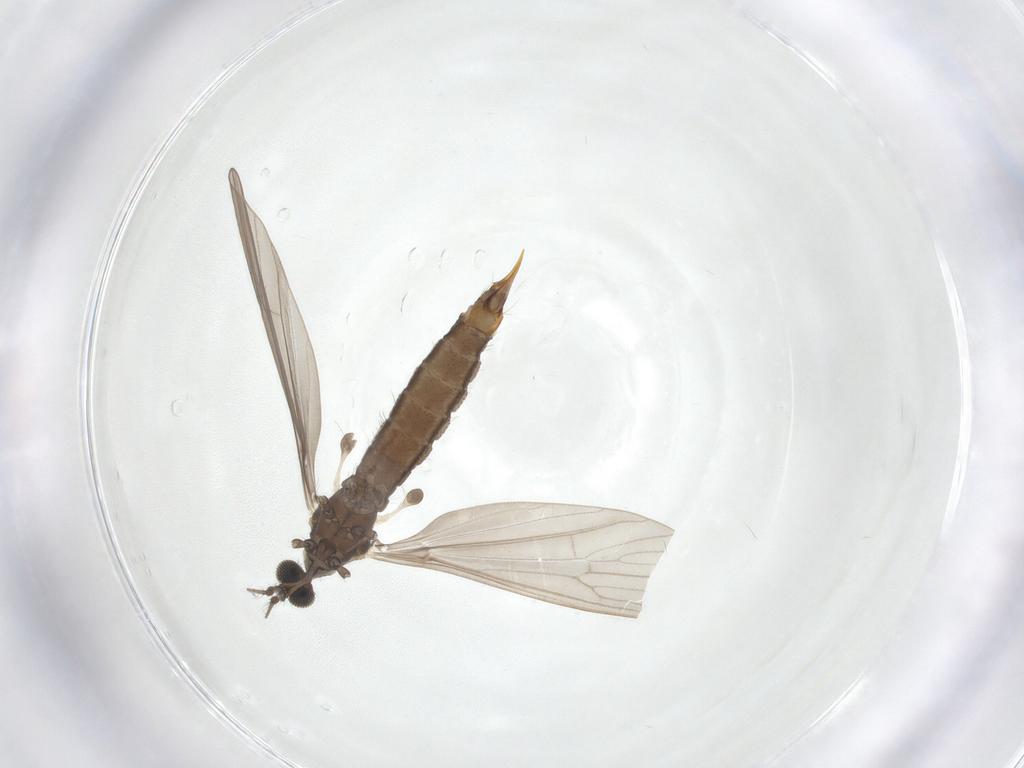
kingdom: Animalia
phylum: Arthropoda
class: Insecta
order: Diptera
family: Limoniidae
